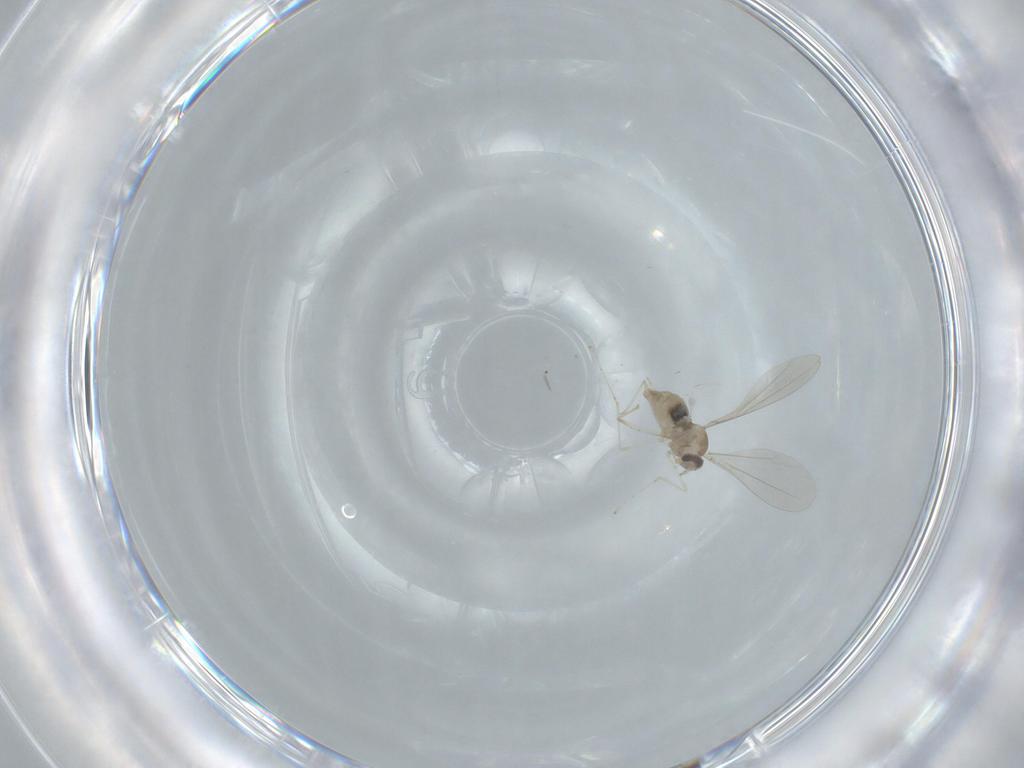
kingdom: Animalia
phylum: Arthropoda
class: Insecta
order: Diptera
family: Cecidomyiidae
